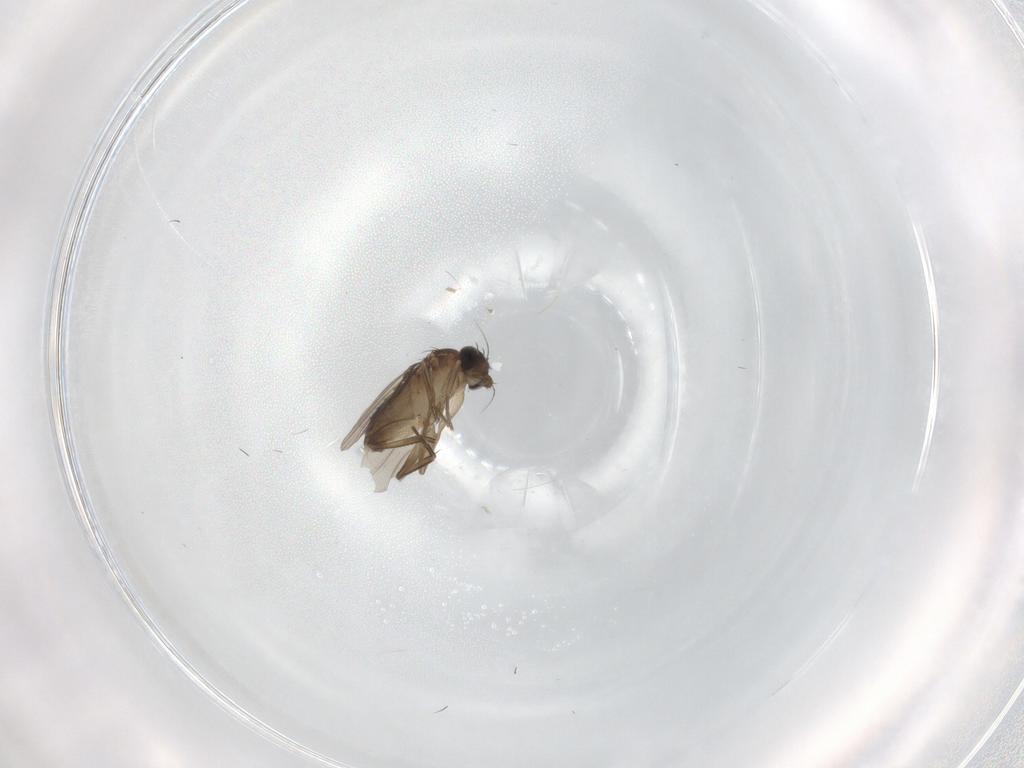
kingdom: Animalia
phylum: Arthropoda
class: Insecta
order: Diptera
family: Phoridae
